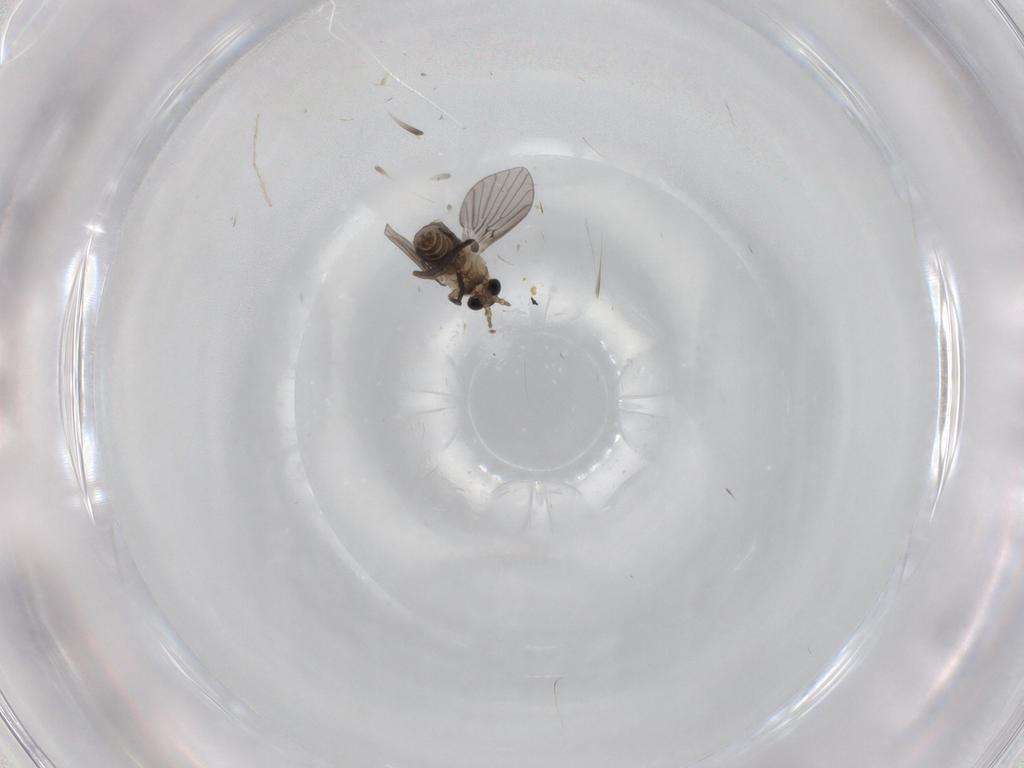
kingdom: Animalia
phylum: Arthropoda
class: Insecta
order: Diptera
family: Psychodidae
